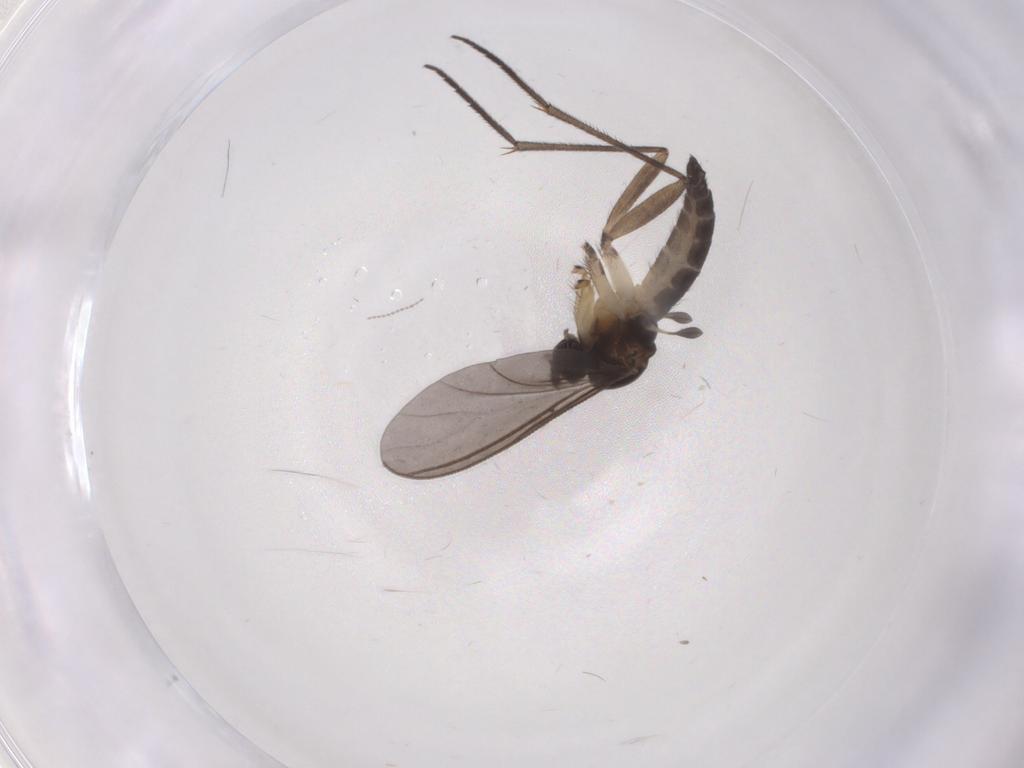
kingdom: Animalia
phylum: Arthropoda
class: Insecta
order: Diptera
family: Sciaridae
